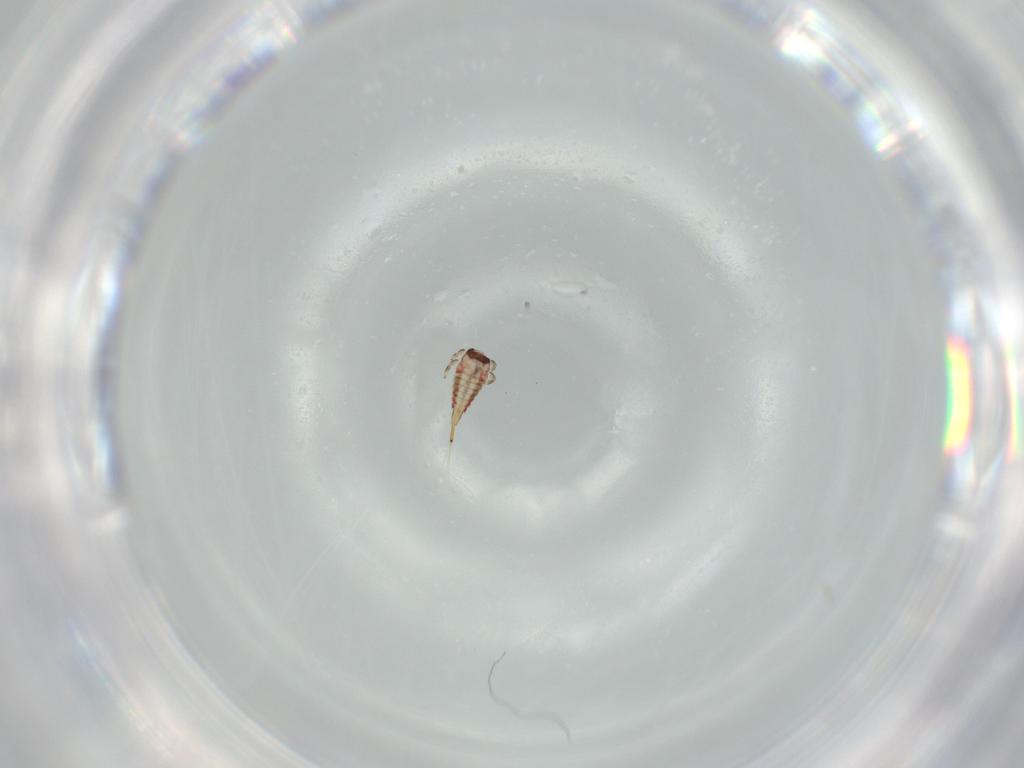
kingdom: Animalia
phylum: Arthropoda
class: Insecta
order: Thysanoptera
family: Phlaeothripidae
